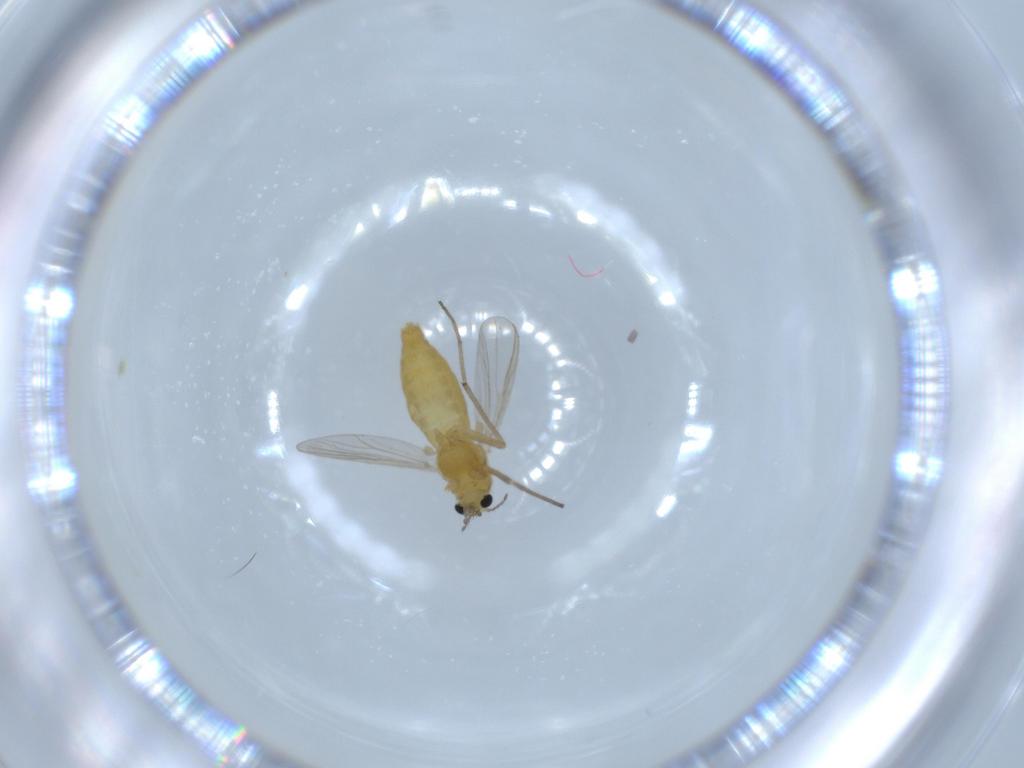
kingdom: Animalia
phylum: Arthropoda
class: Insecta
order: Diptera
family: Chironomidae
